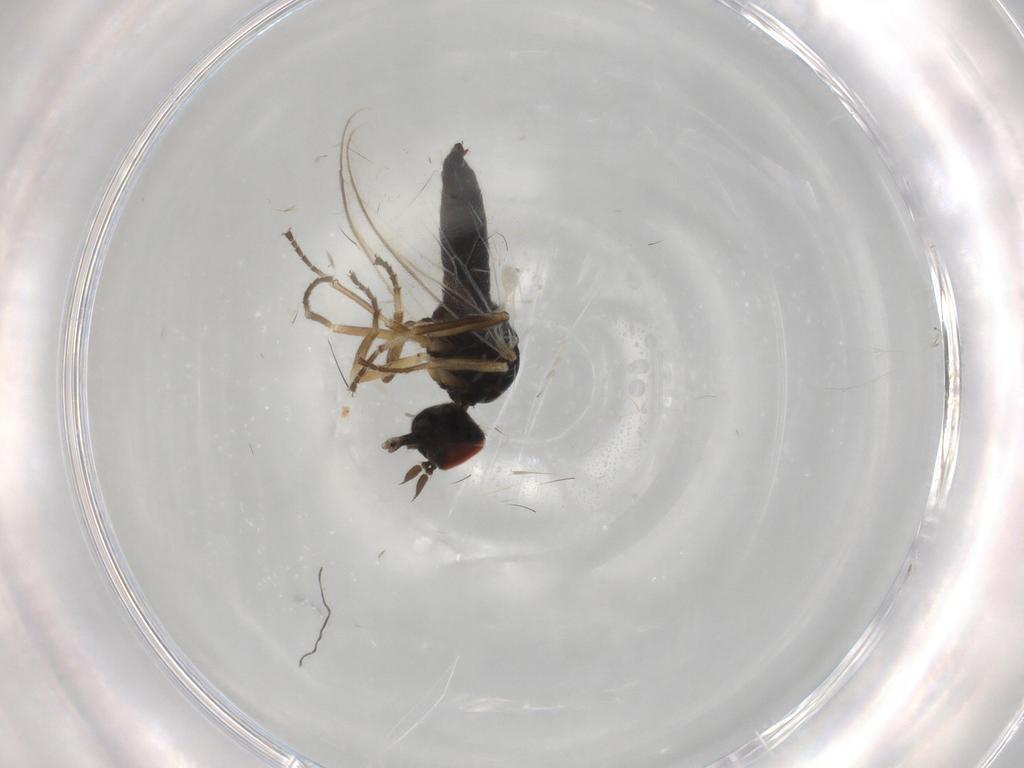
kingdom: Animalia
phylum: Arthropoda
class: Insecta
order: Diptera
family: Hybotidae
